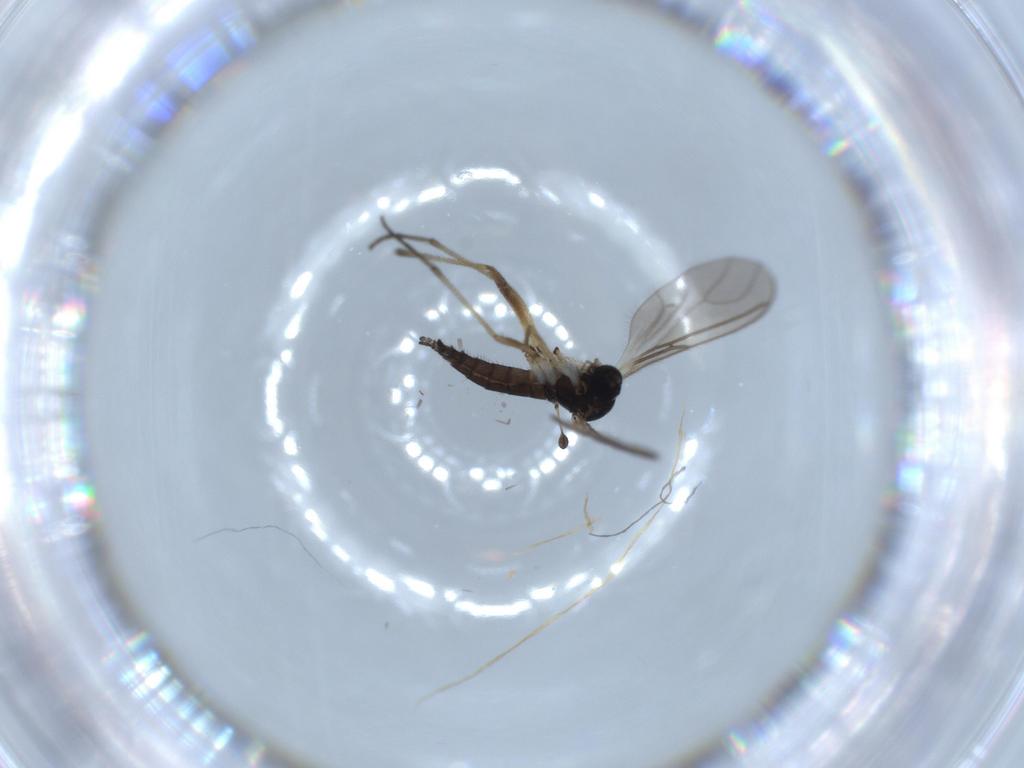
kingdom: Animalia
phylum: Arthropoda
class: Insecta
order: Diptera
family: Sciaridae
